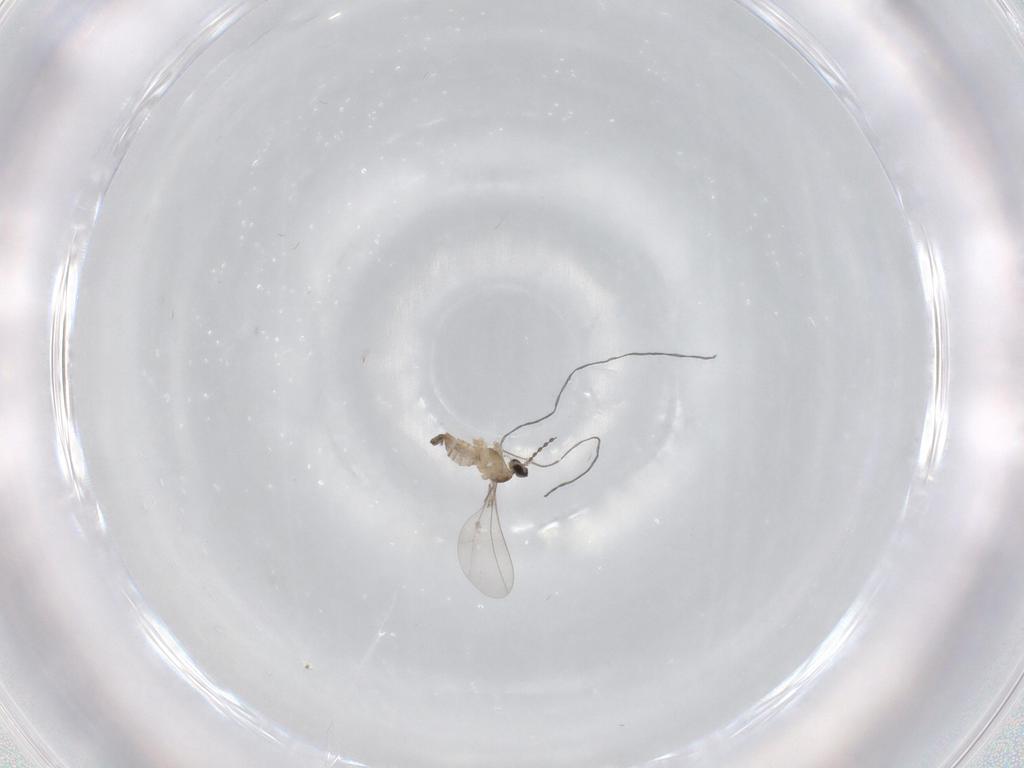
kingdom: Animalia
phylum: Arthropoda
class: Insecta
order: Diptera
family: Cecidomyiidae
